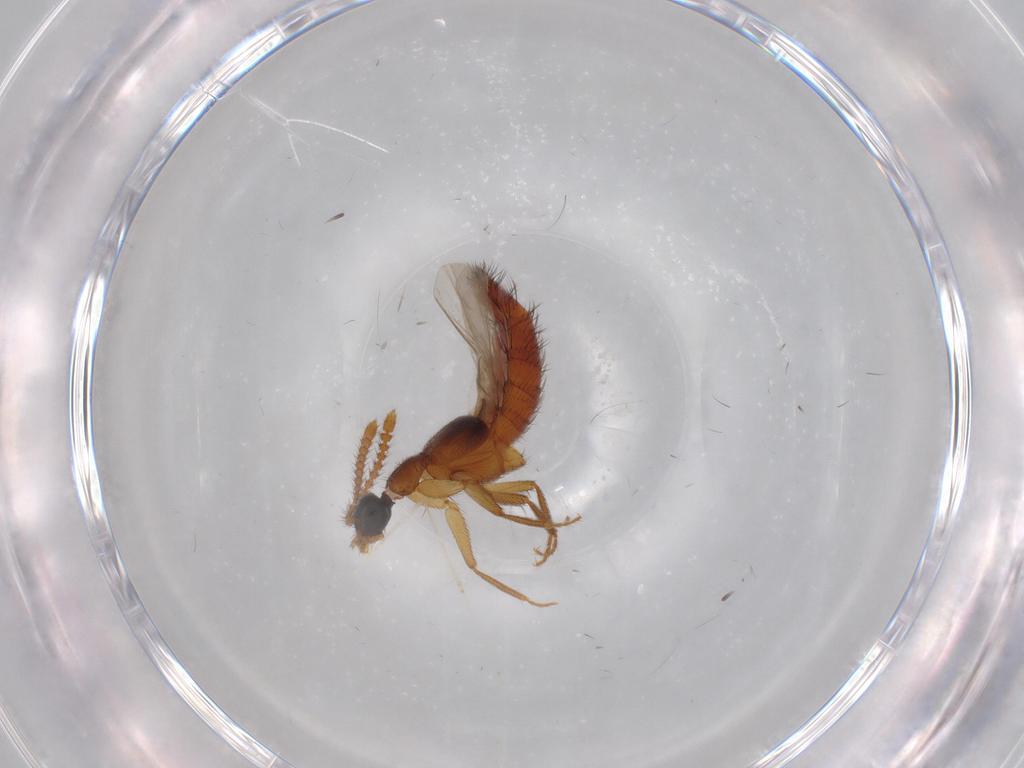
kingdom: Animalia
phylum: Arthropoda
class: Insecta
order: Coleoptera
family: Staphylinidae
